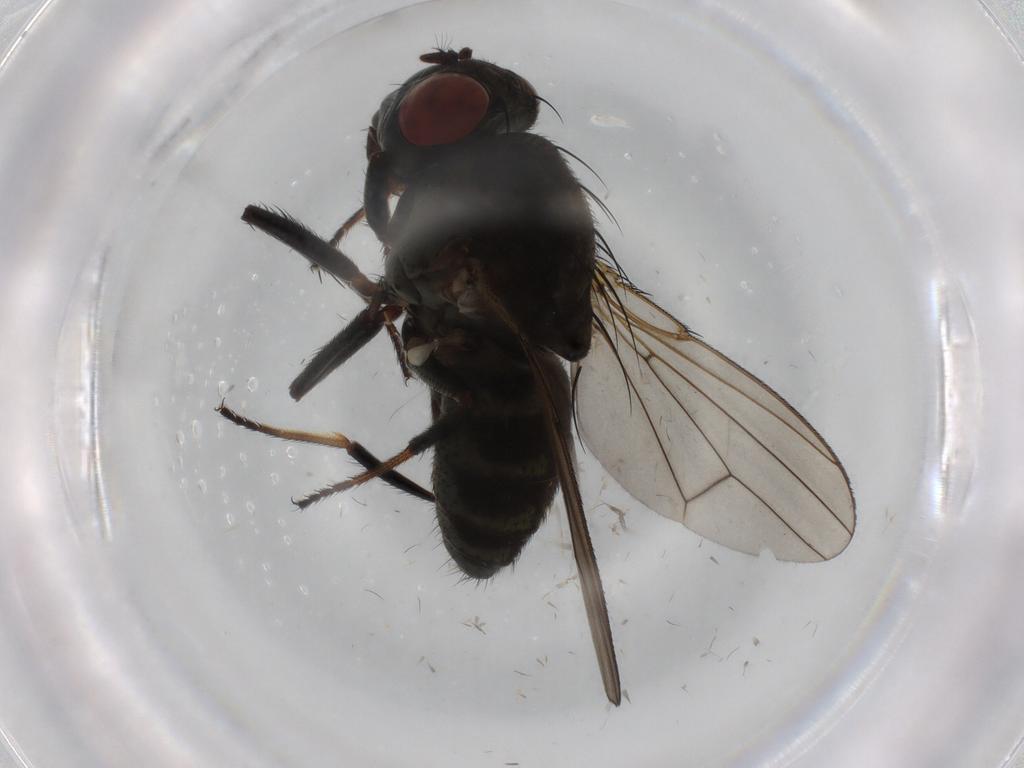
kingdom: Animalia
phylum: Arthropoda
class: Insecta
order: Diptera
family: Ephydridae
